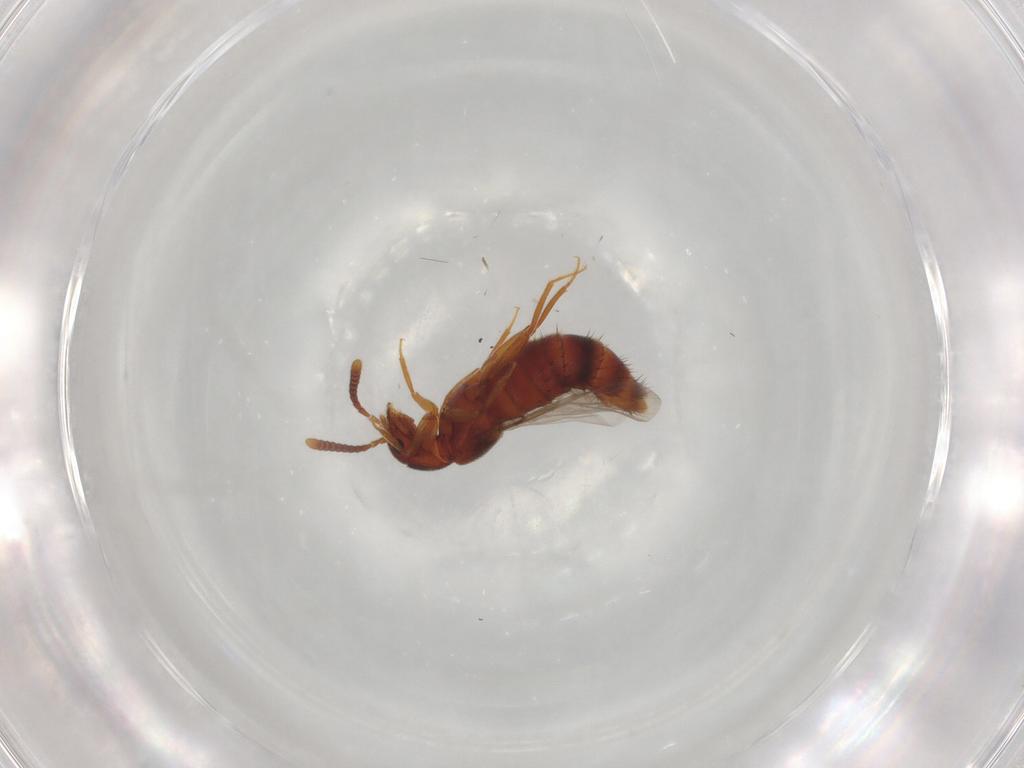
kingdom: Animalia
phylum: Arthropoda
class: Insecta
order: Coleoptera
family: Staphylinidae
